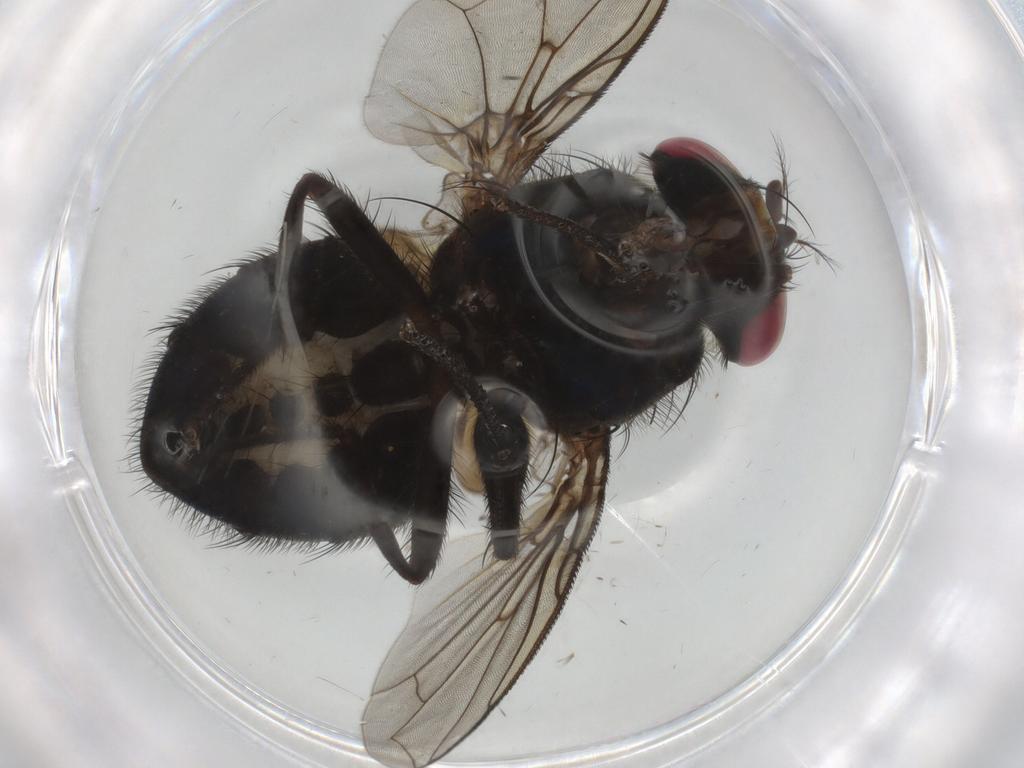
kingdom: Animalia
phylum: Arthropoda
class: Insecta
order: Diptera
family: Calliphoridae
